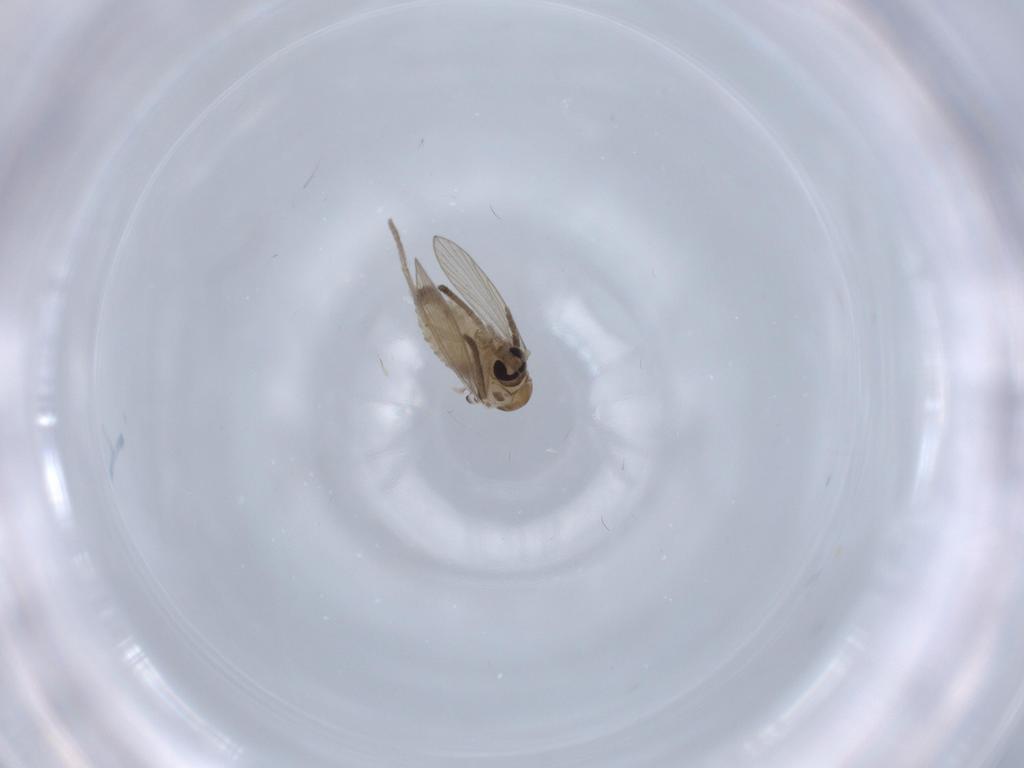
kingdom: Animalia
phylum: Arthropoda
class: Insecta
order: Diptera
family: Psychodidae
